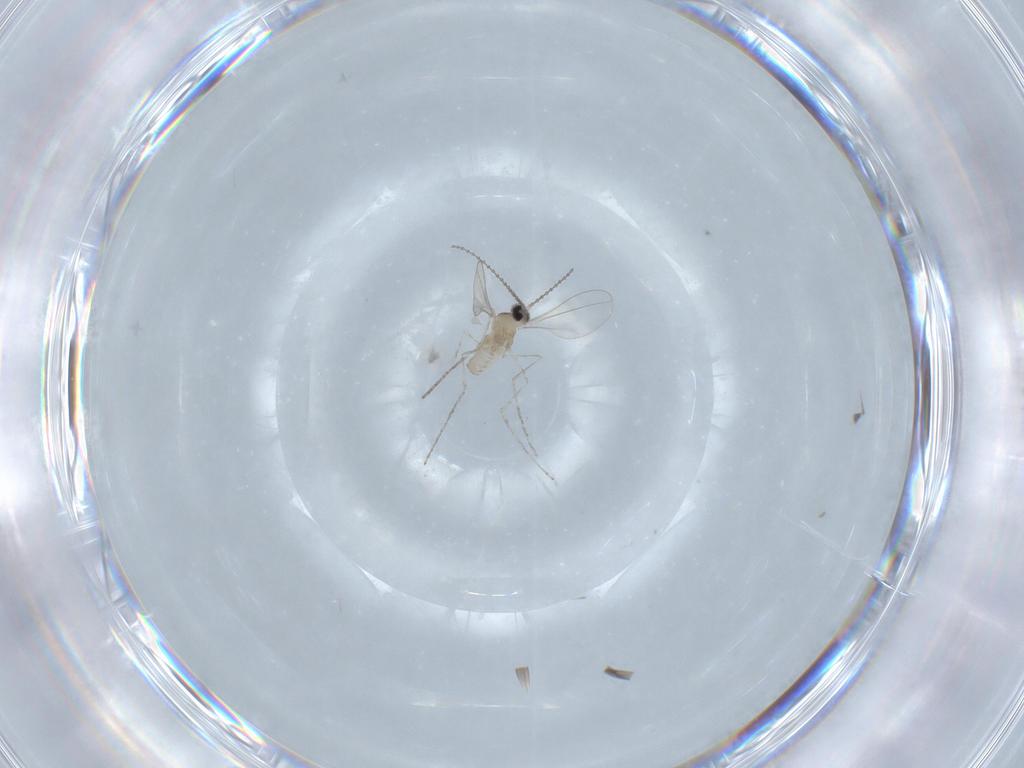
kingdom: Animalia
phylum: Arthropoda
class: Insecta
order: Diptera
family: Cecidomyiidae
